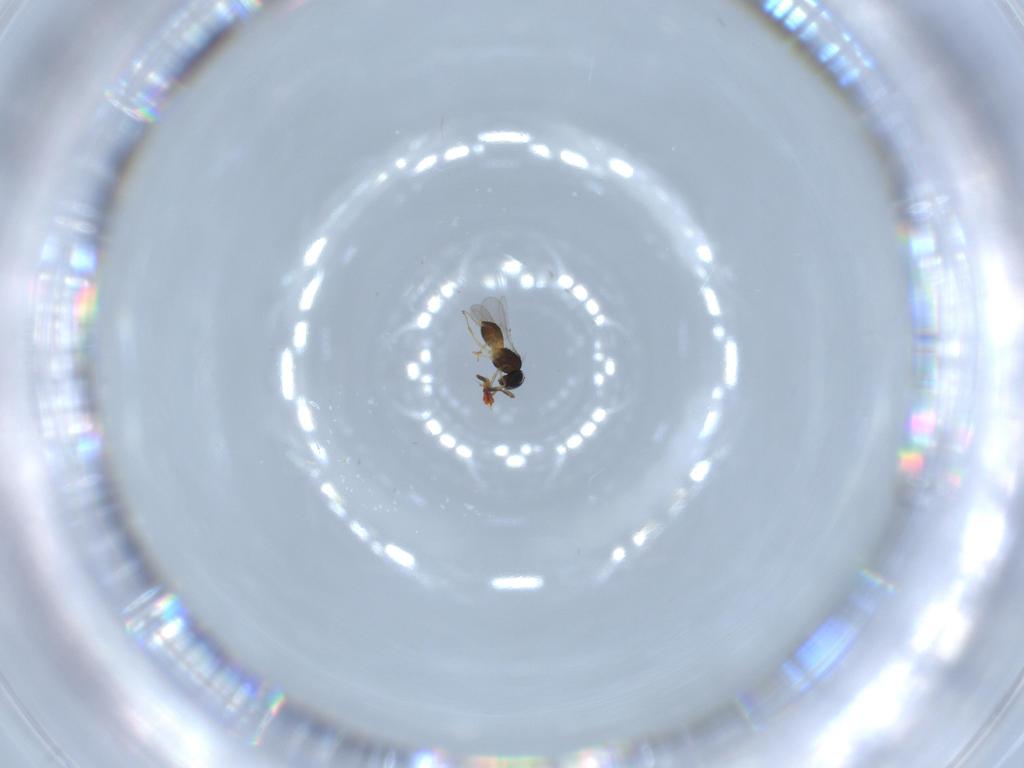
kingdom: Animalia
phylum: Arthropoda
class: Insecta
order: Hymenoptera
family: Scelionidae
